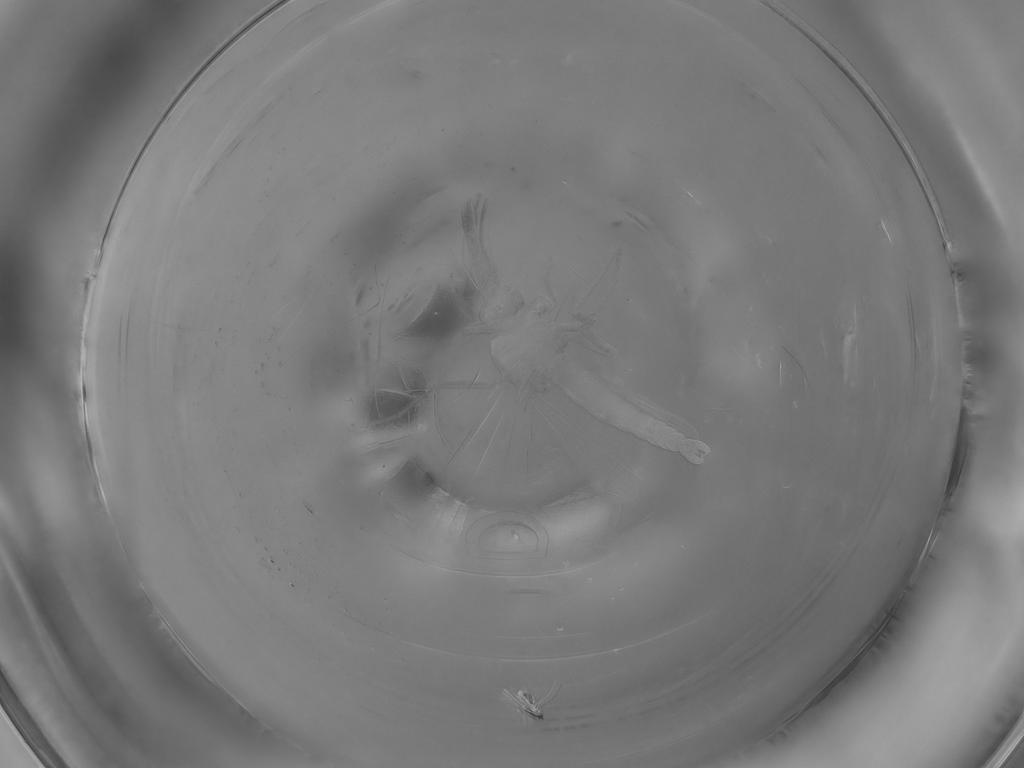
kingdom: Animalia
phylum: Arthropoda
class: Insecta
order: Diptera
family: Ceratopogonidae
